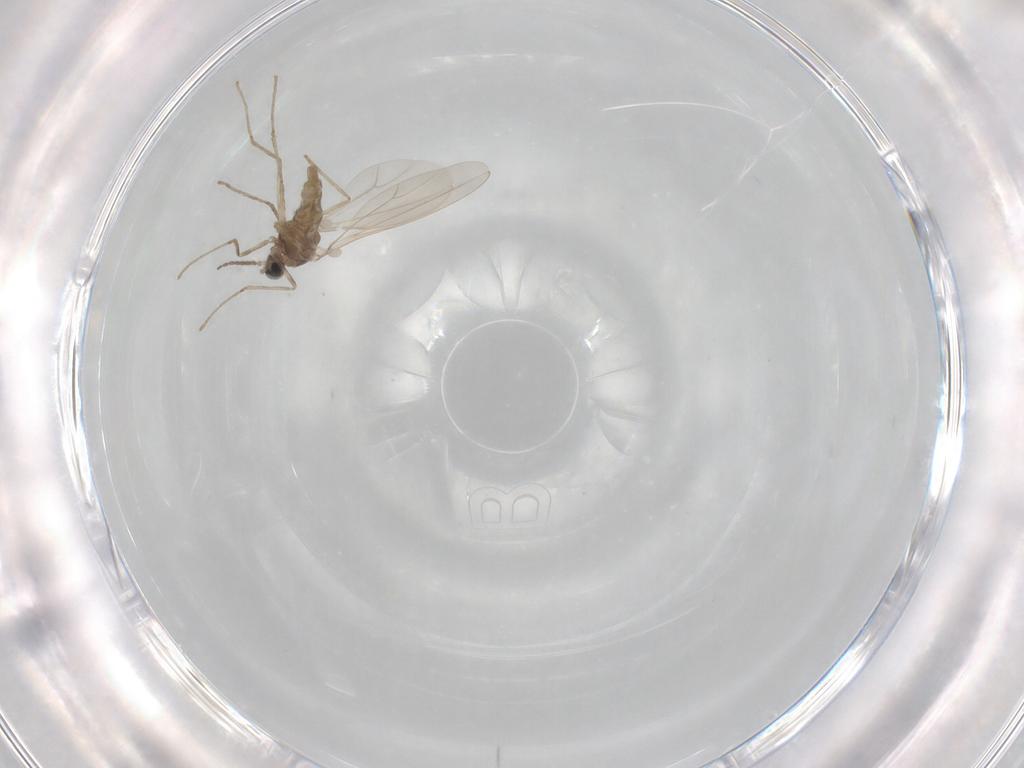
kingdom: Animalia
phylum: Arthropoda
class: Insecta
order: Diptera
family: Cecidomyiidae
